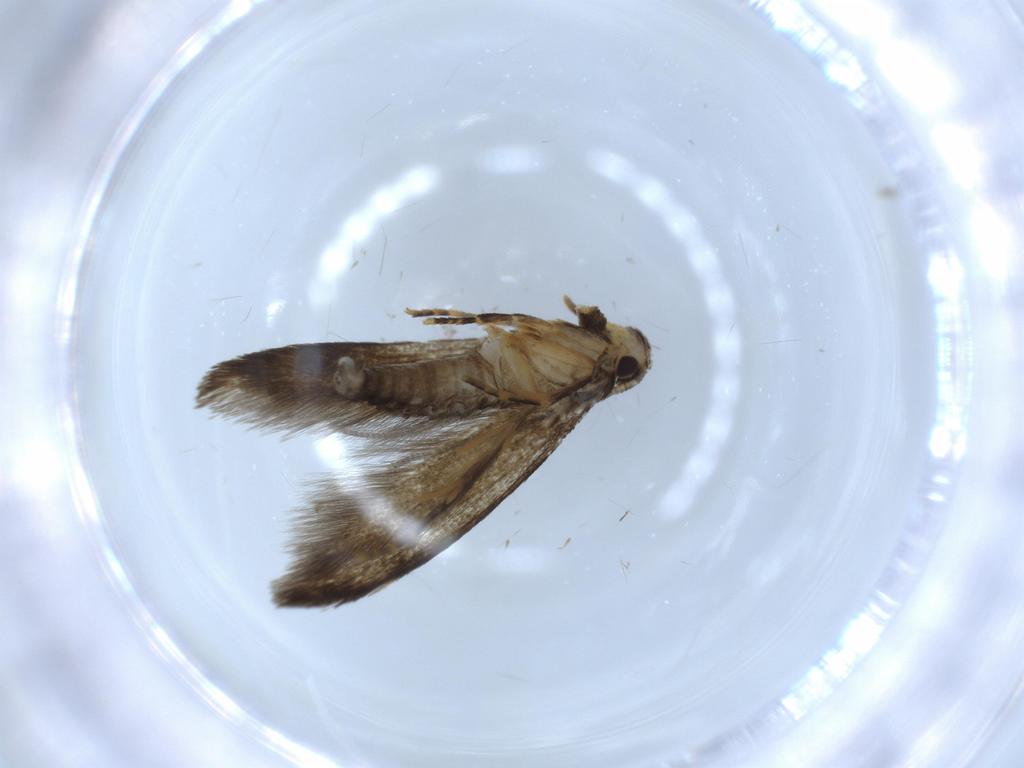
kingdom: Animalia
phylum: Arthropoda
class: Insecta
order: Lepidoptera
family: Tineidae
